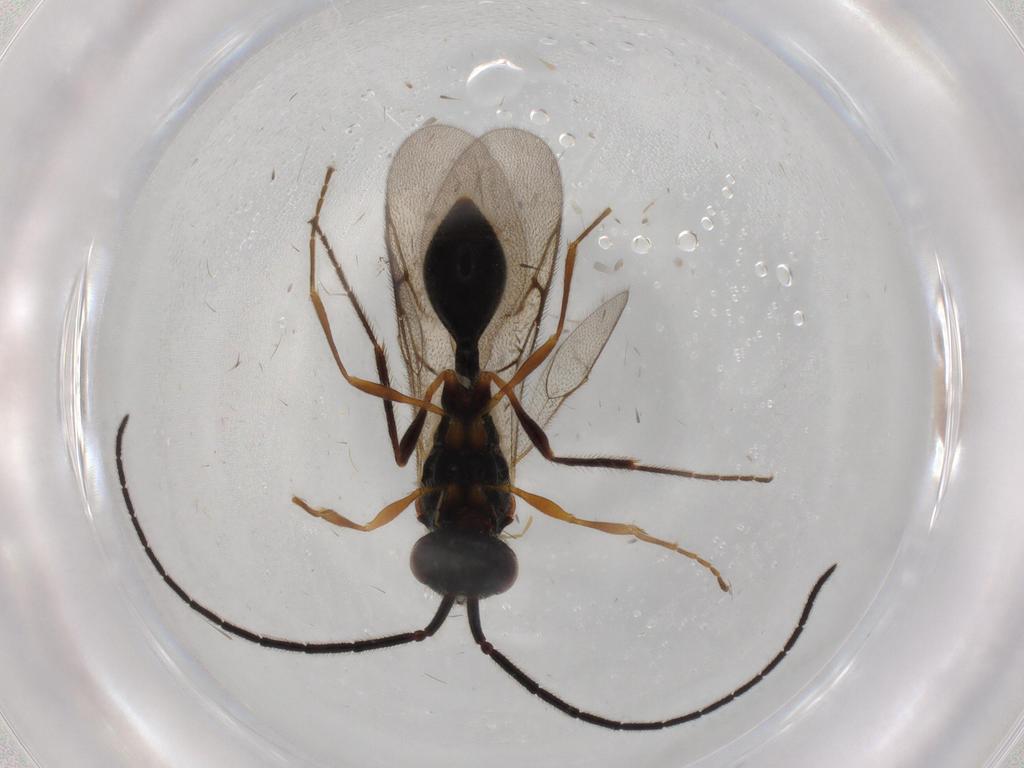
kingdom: Animalia
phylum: Arthropoda
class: Insecta
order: Hymenoptera
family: Diapriidae
